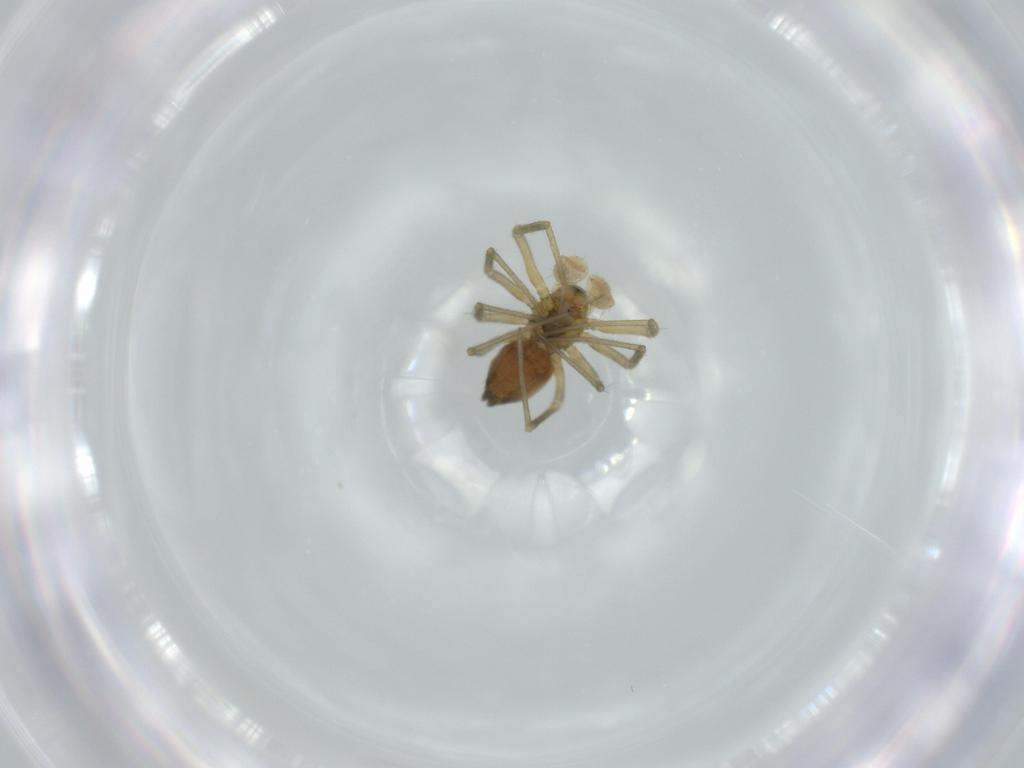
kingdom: Animalia
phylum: Arthropoda
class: Arachnida
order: Araneae
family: Linyphiidae
